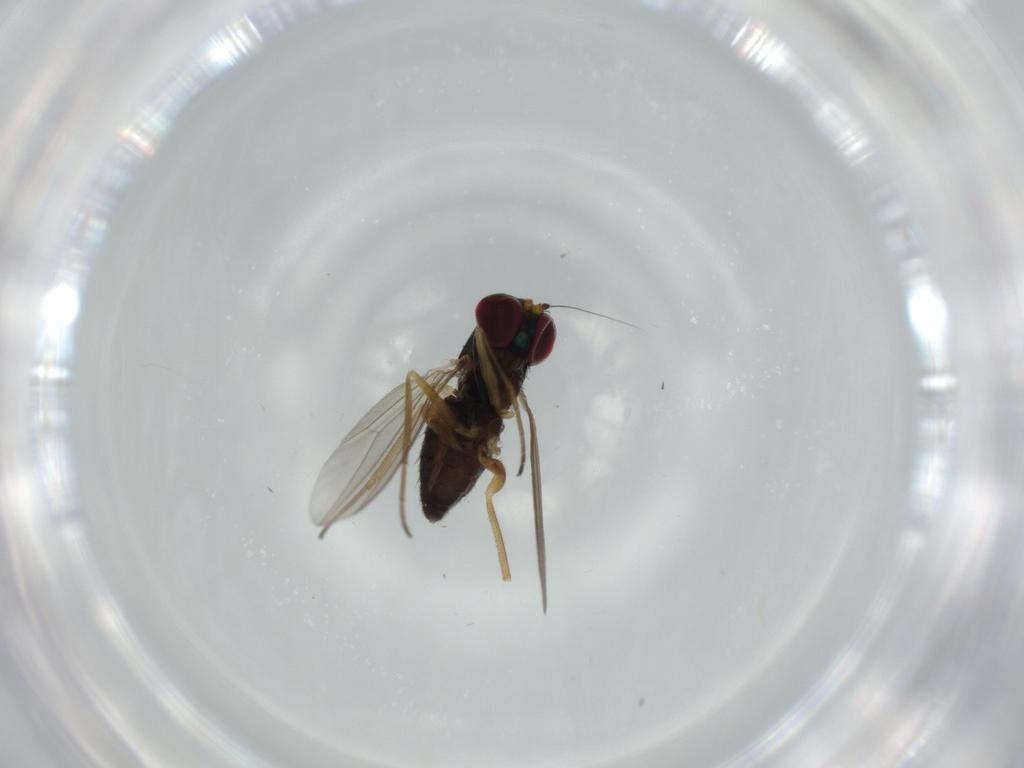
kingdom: Animalia
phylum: Arthropoda
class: Insecta
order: Diptera
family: Dolichopodidae
